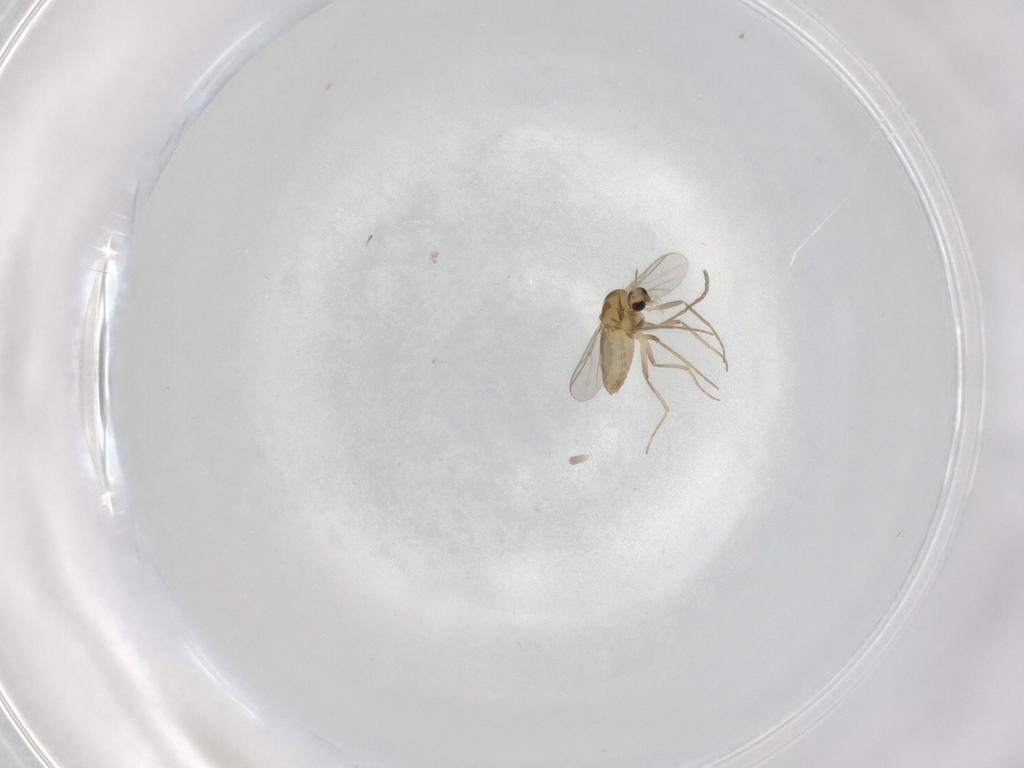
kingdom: Animalia
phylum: Arthropoda
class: Insecta
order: Diptera
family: Chironomidae
